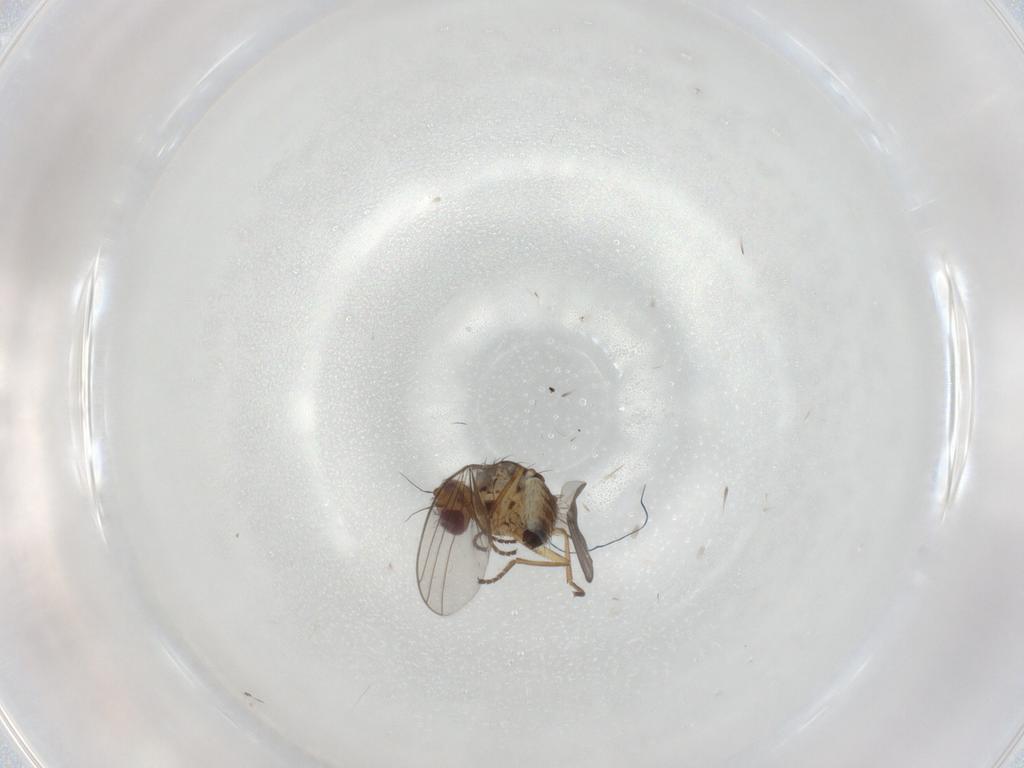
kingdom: Animalia
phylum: Arthropoda
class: Insecta
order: Diptera
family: Agromyzidae
